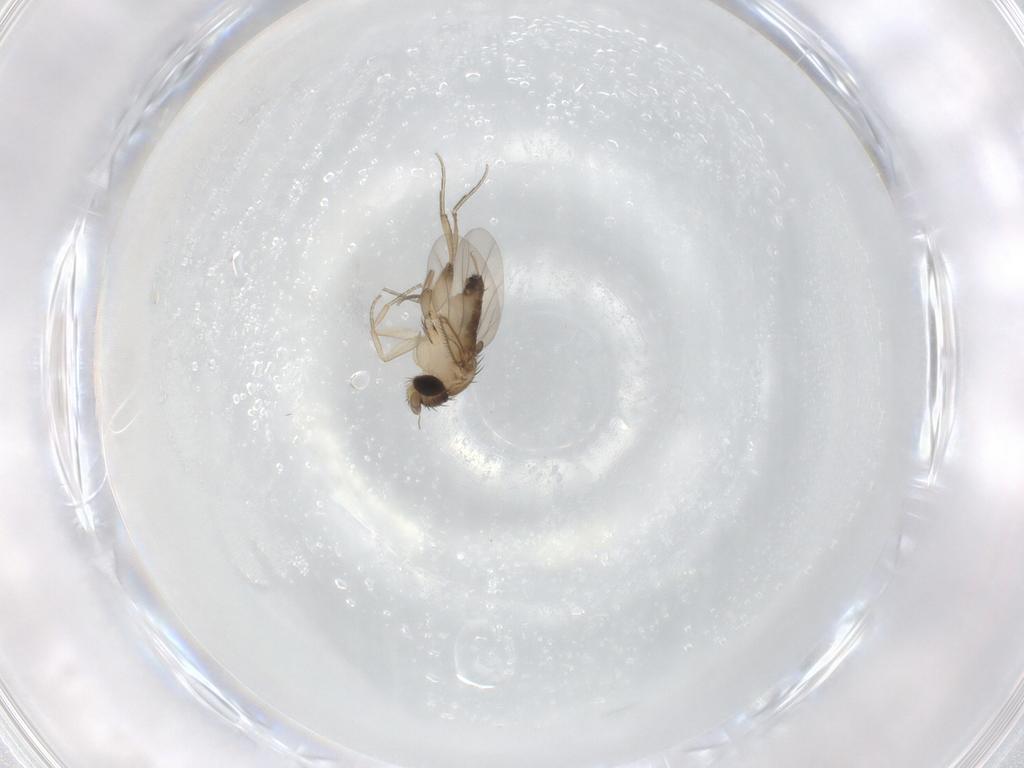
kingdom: Animalia
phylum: Arthropoda
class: Insecta
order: Diptera
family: Phoridae
